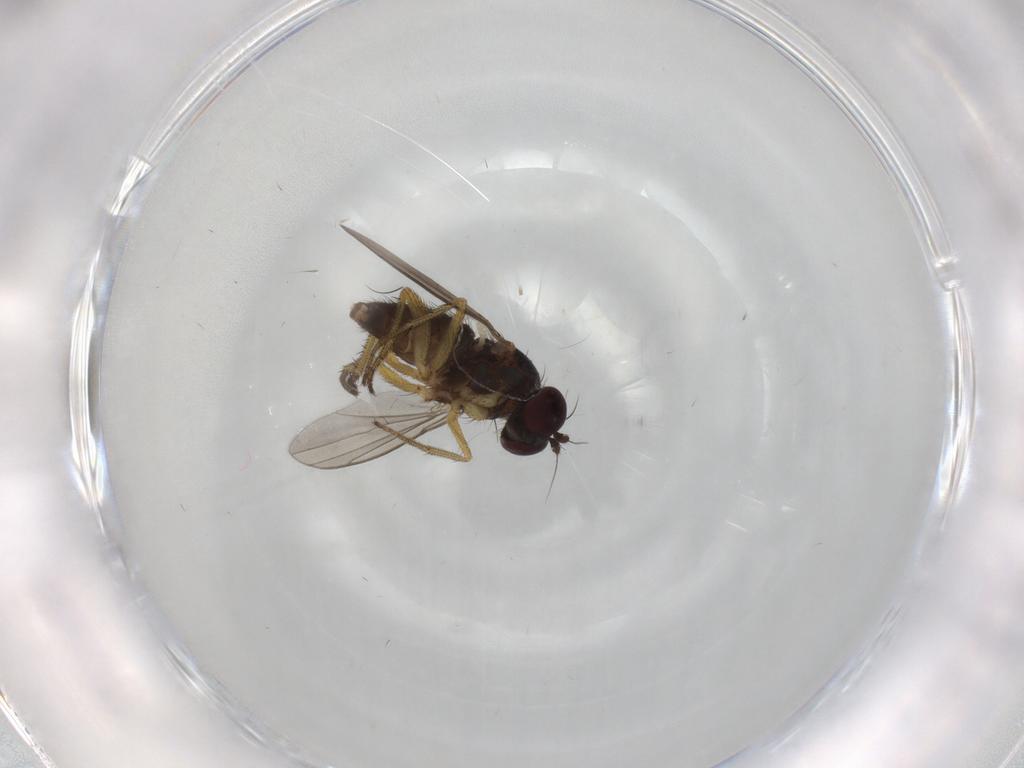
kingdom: Animalia
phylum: Arthropoda
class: Insecta
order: Diptera
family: Dolichopodidae
